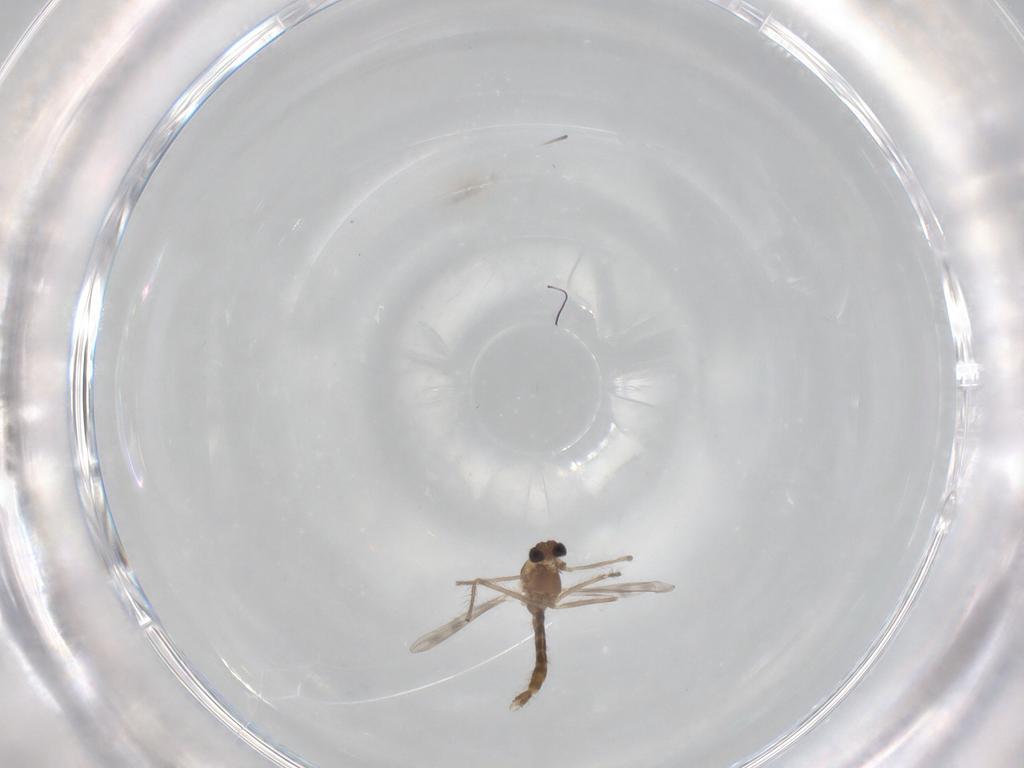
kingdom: Animalia
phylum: Arthropoda
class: Insecta
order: Diptera
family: Chironomidae
